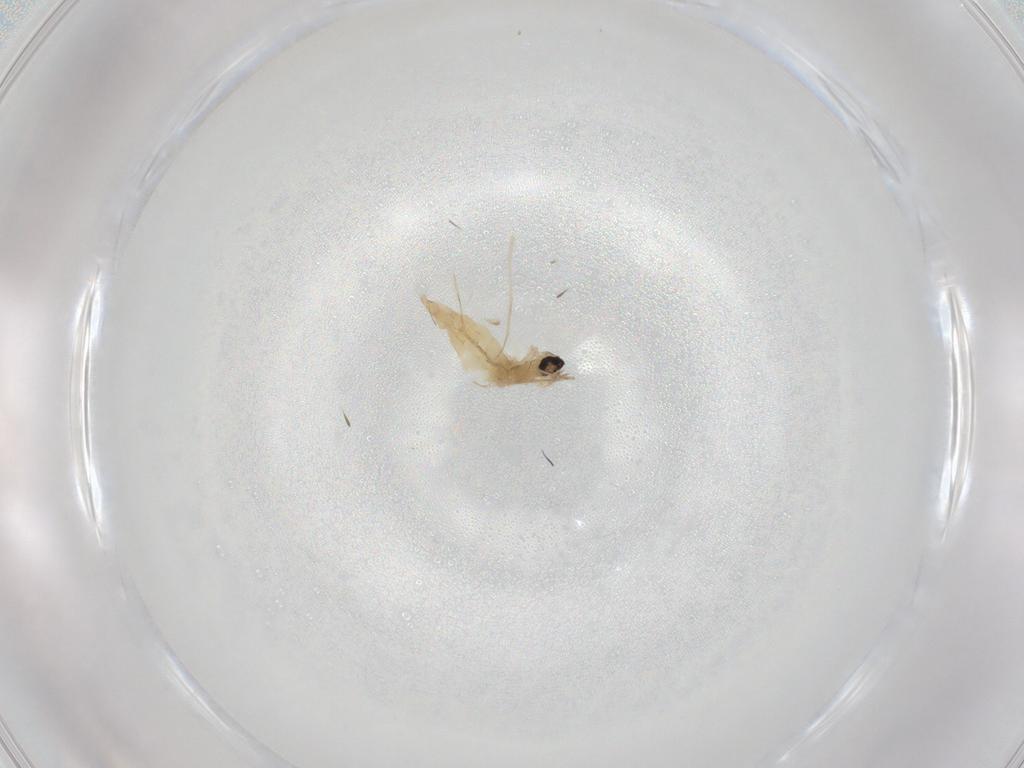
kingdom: Animalia
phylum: Arthropoda
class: Insecta
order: Diptera
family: Cecidomyiidae
